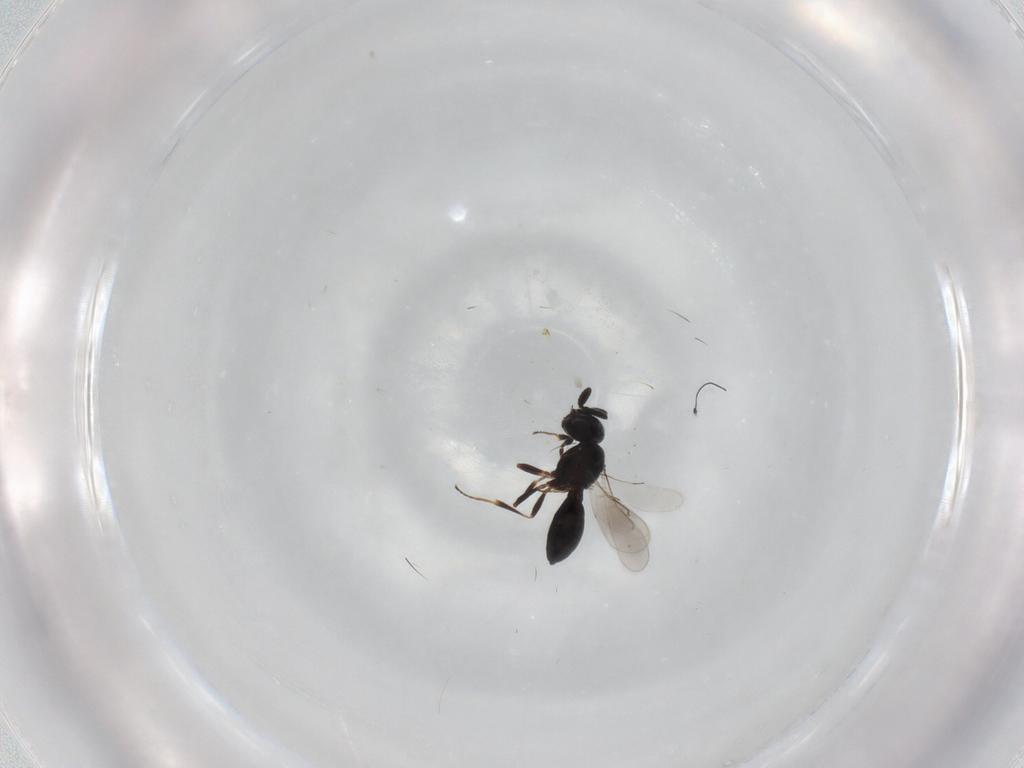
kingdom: Animalia
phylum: Arthropoda
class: Insecta
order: Hymenoptera
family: Scelionidae
